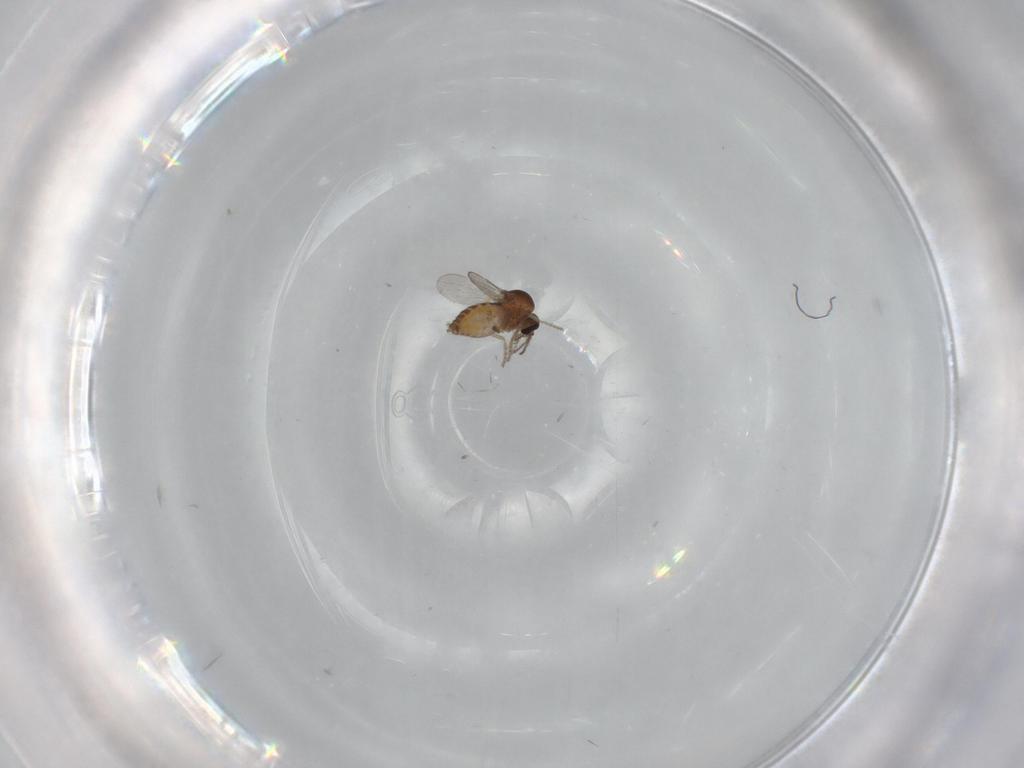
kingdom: Animalia
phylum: Arthropoda
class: Insecta
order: Diptera
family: Ceratopogonidae
